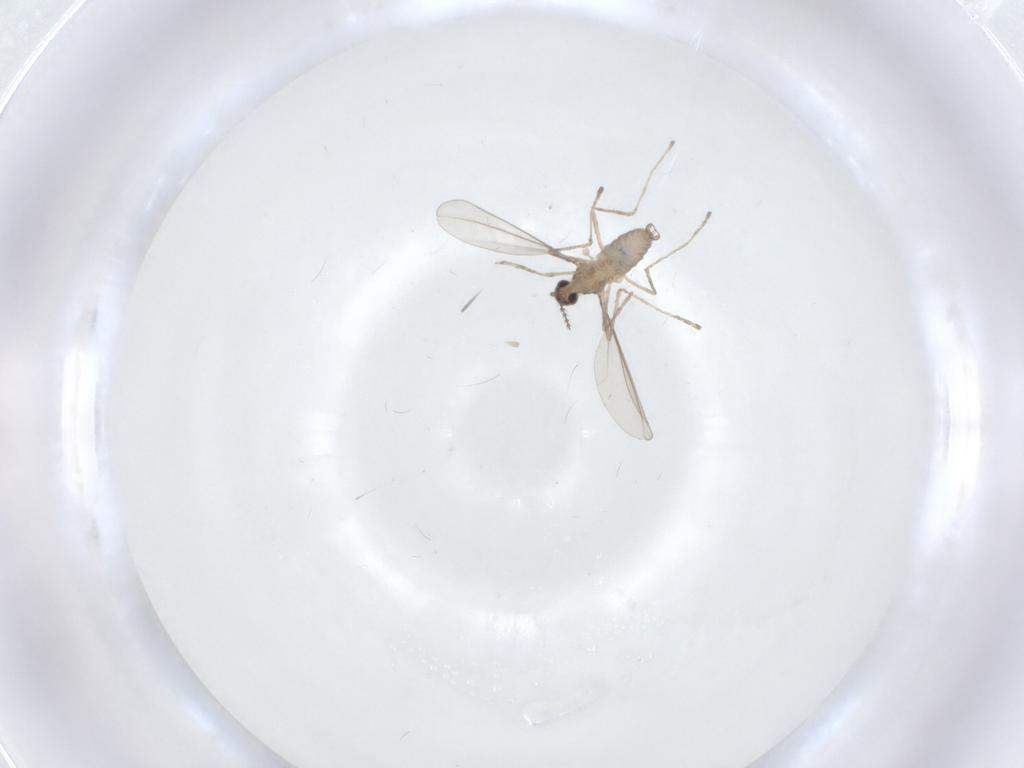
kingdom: Animalia
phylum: Arthropoda
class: Insecta
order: Diptera
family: Cecidomyiidae
